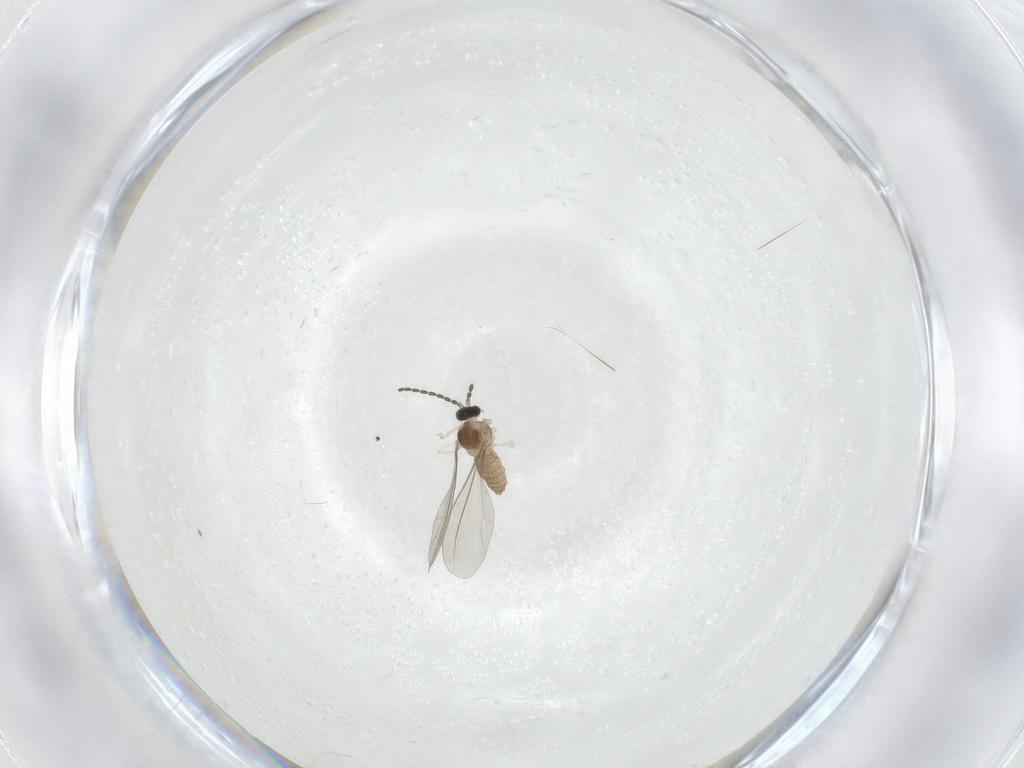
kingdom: Animalia
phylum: Arthropoda
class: Insecta
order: Diptera
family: Cecidomyiidae
